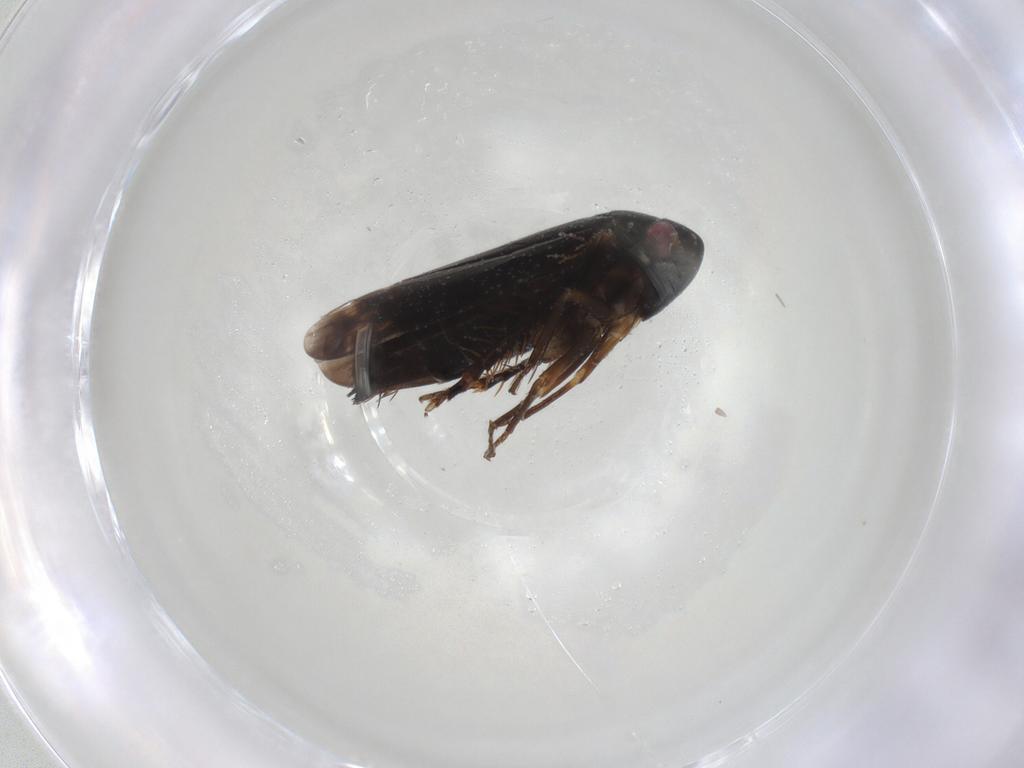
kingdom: Animalia
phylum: Arthropoda
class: Insecta
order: Hemiptera
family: Cicadellidae
